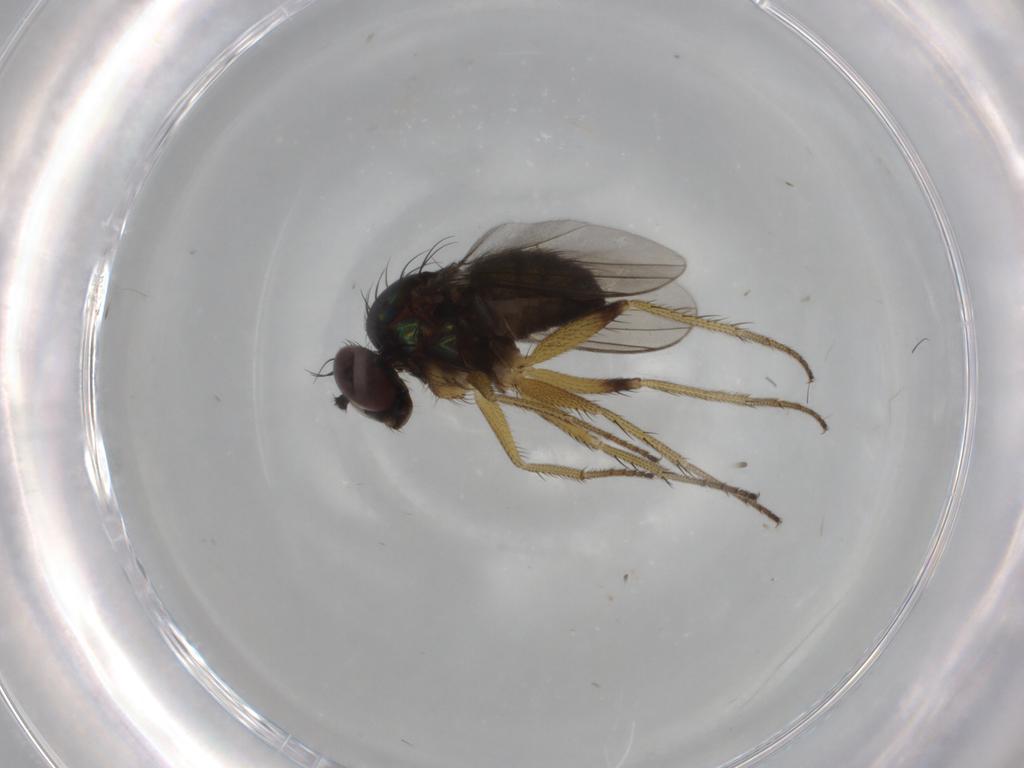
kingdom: Animalia
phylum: Arthropoda
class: Insecta
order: Diptera
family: Dolichopodidae
